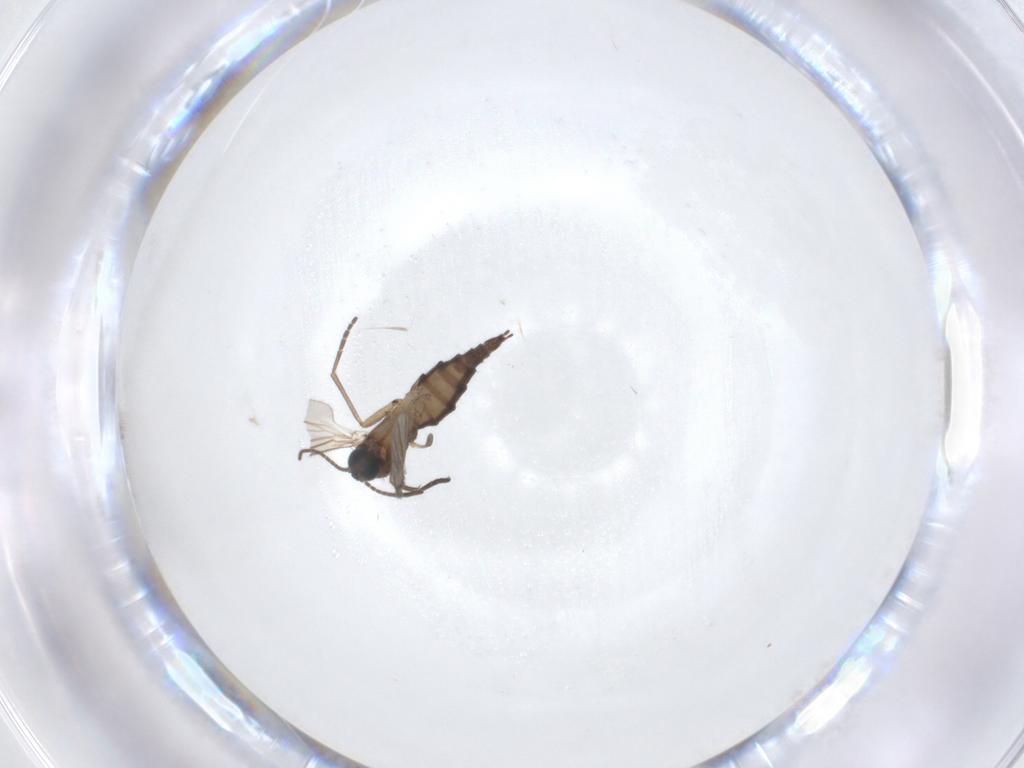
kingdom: Animalia
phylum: Arthropoda
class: Insecta
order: Diptera
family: Sciaridae
